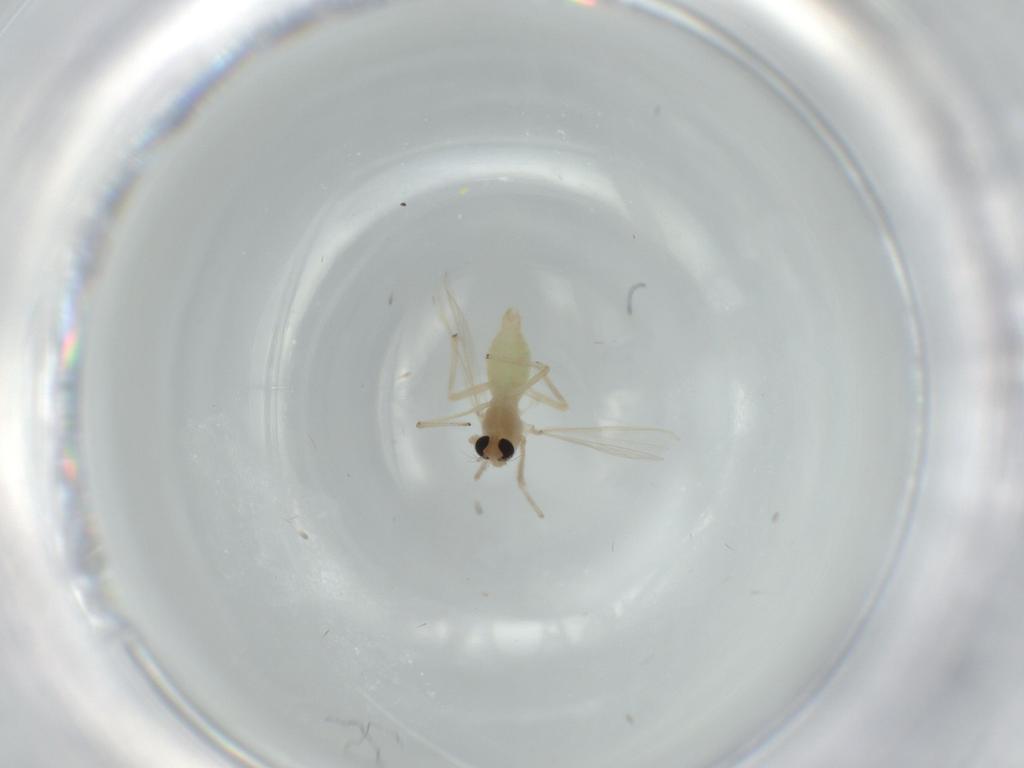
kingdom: Animalia
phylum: Arthropoda
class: Insecta
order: Diptera
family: Chironomidae
